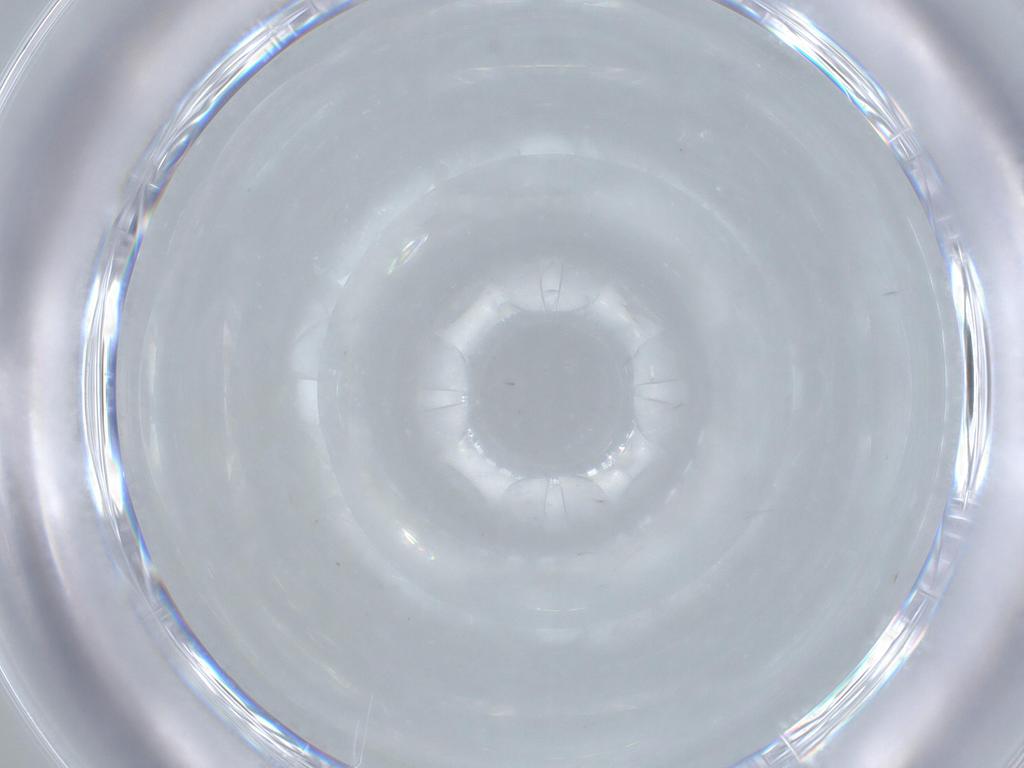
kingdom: Animalia
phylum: Arthropoda
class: Insecta
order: Diptera
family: Cecidomyiidae
